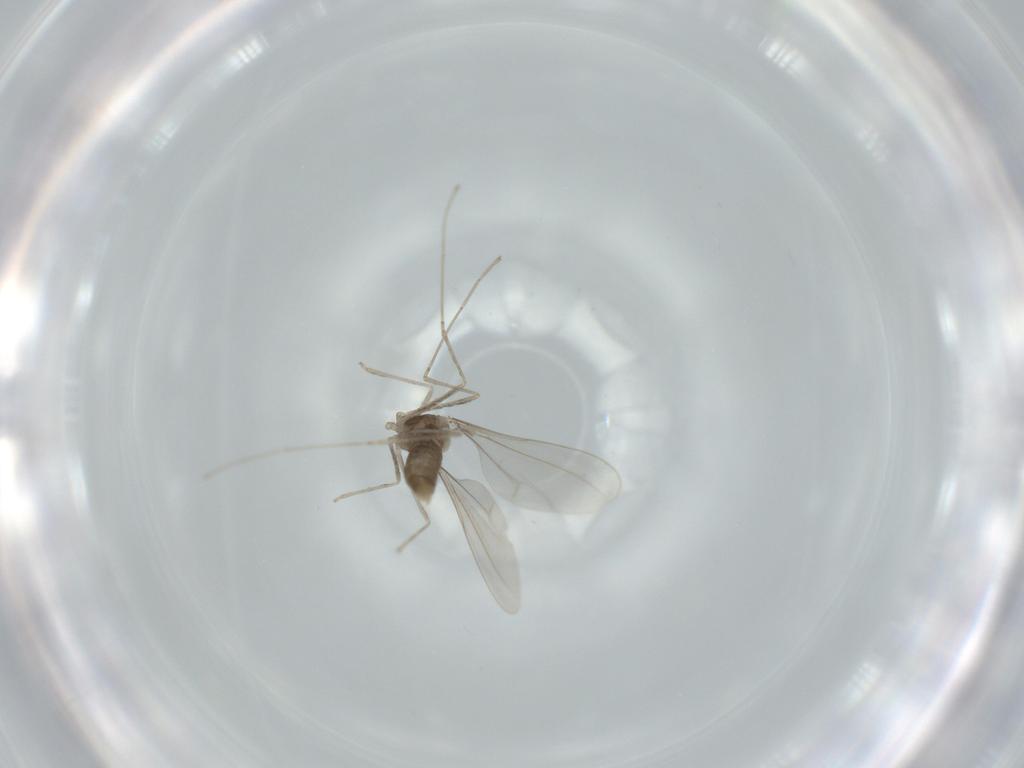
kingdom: Animalia
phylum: Arthropoda
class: Insecta
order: Diptera
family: Cecidomyiidae
